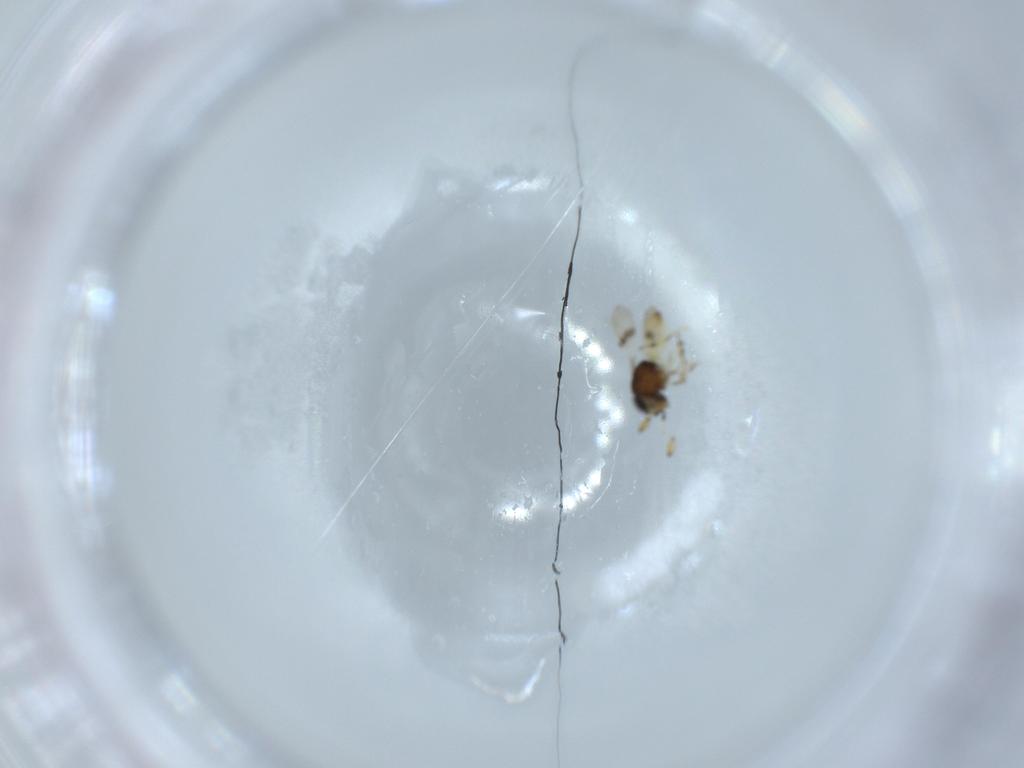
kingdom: Animalia
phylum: Arthropoda
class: Insecta
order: Hymenoptera
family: Scelionidae
